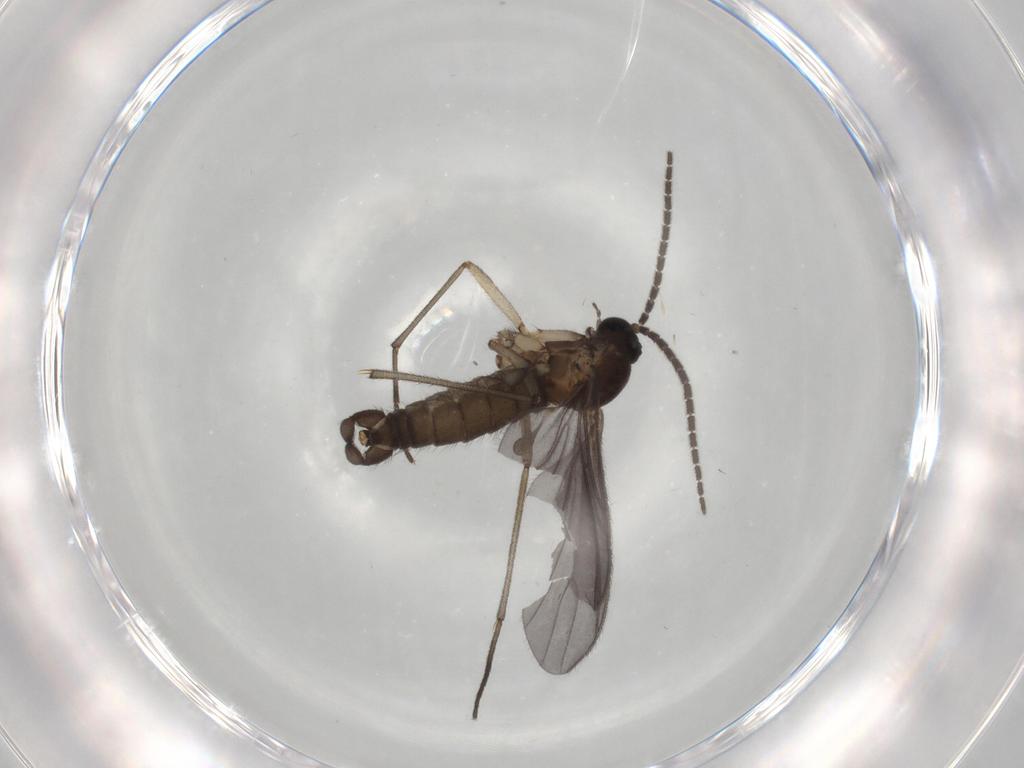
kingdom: Animalia
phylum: Arthropoda
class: Insecta
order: Diptera
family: Sciaridae
